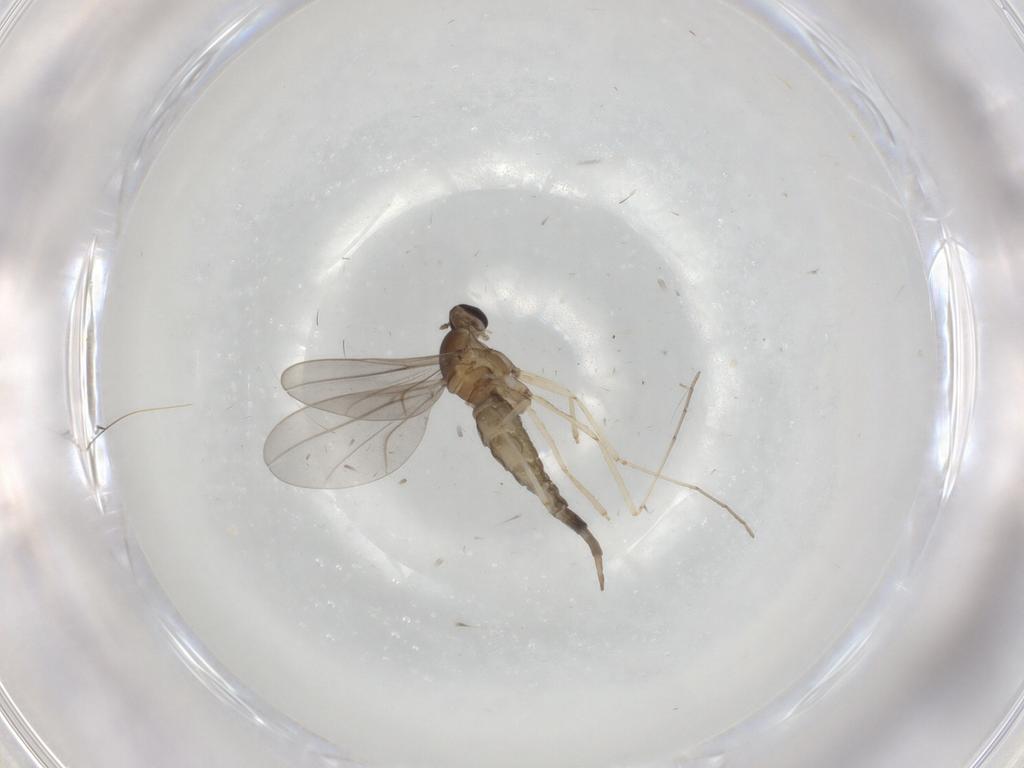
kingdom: Animalia
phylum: Arthropoda
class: Insecta
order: Diptera
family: Cecidomyiidae
